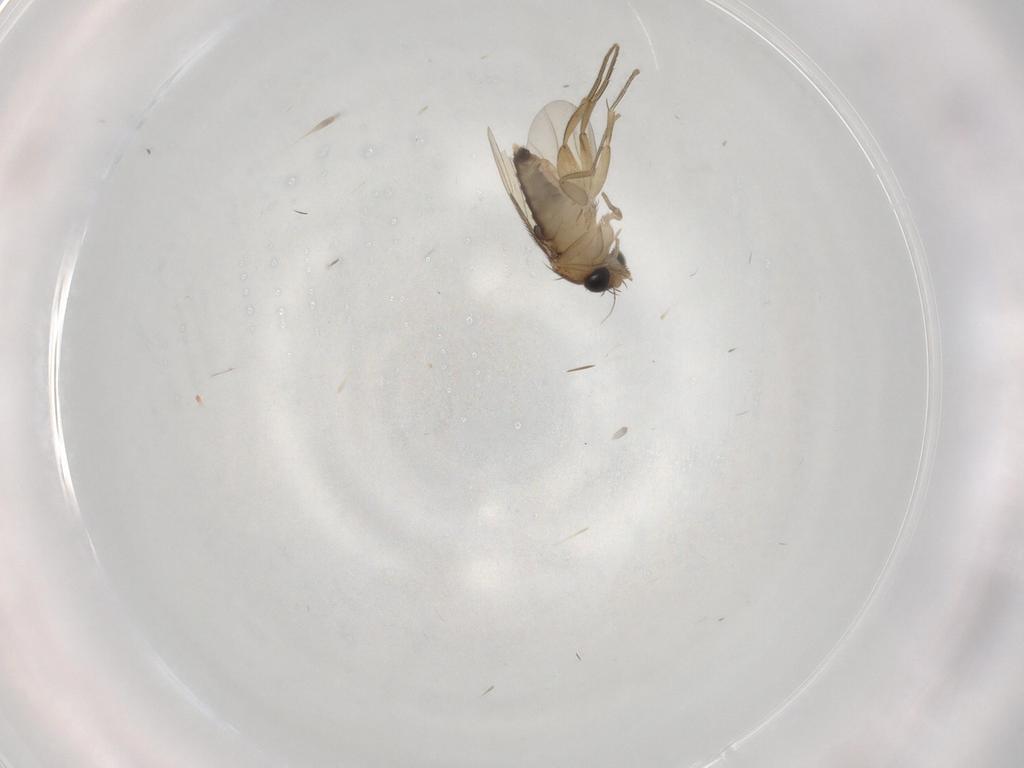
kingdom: Animalia
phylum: Arthropoda
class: Insecta
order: Diptera
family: Phoridae
